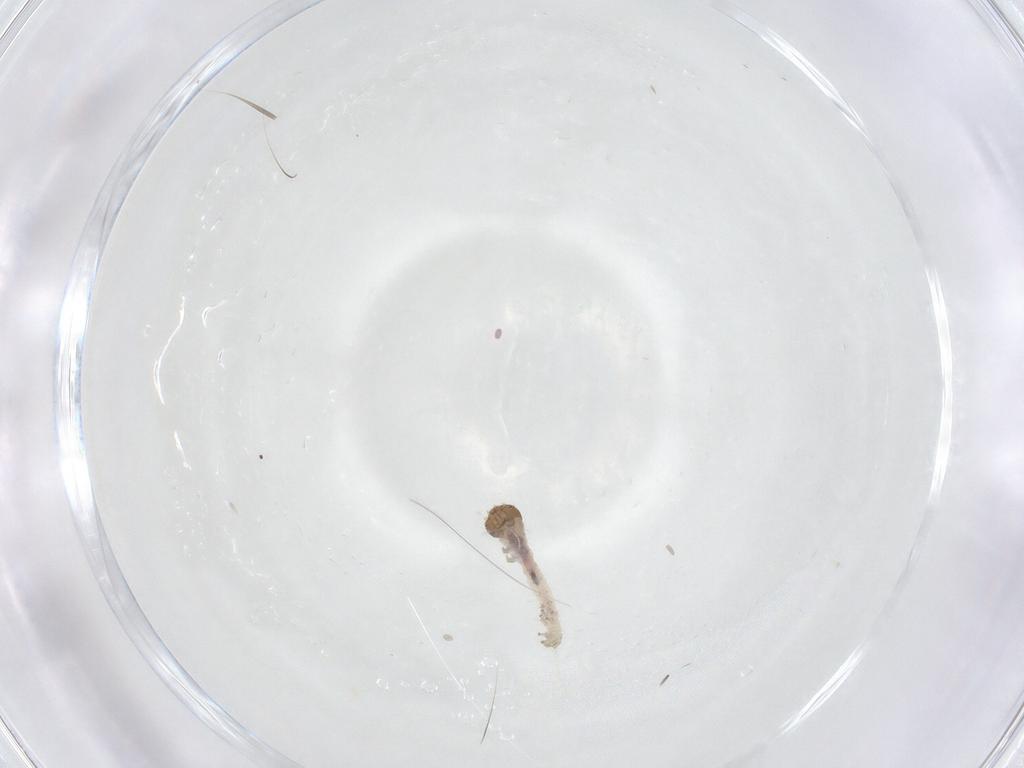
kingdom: Animalia
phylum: Arthropoda
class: Insecta
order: Lepidoptera
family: Erebidae
